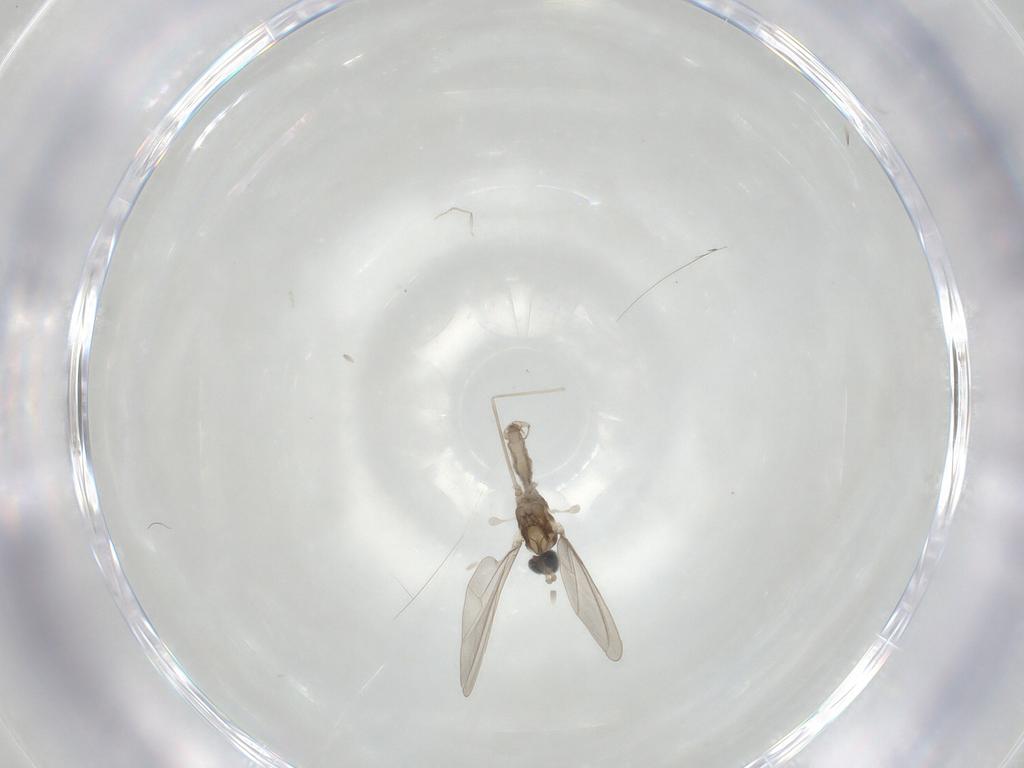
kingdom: Animalia
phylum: Arthropoda
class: Insecta
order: Diptera
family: Cecidomyiidae
